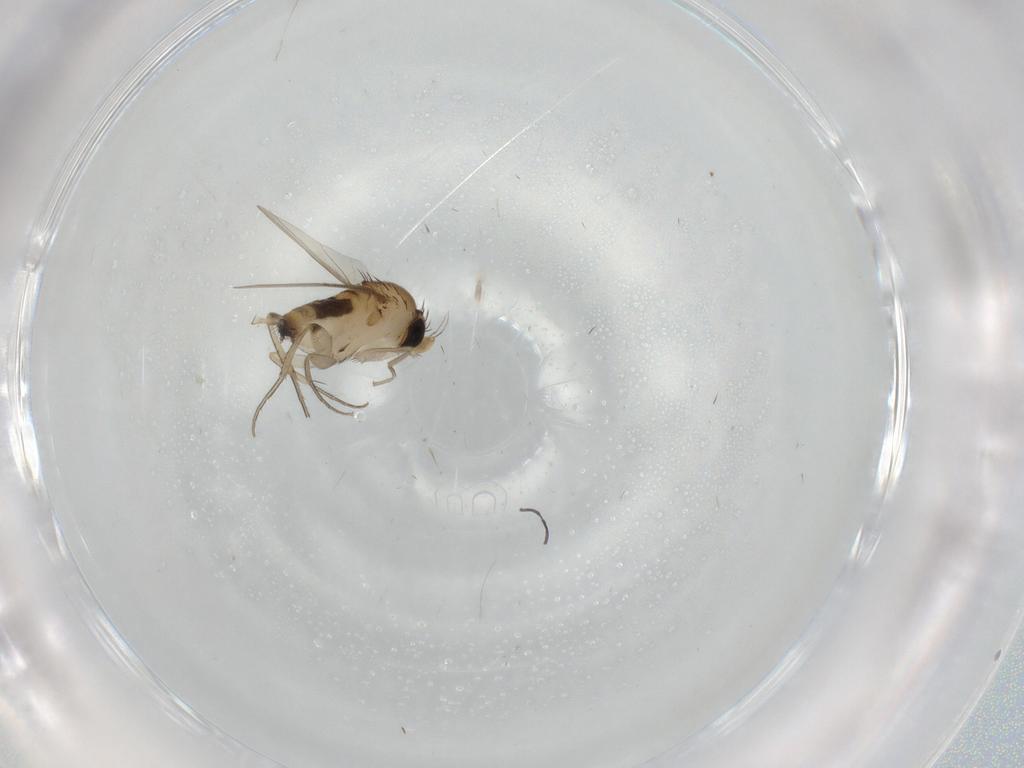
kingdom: Animalia
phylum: Arthropoda
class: Insecta
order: Diptera
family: Phoridae
